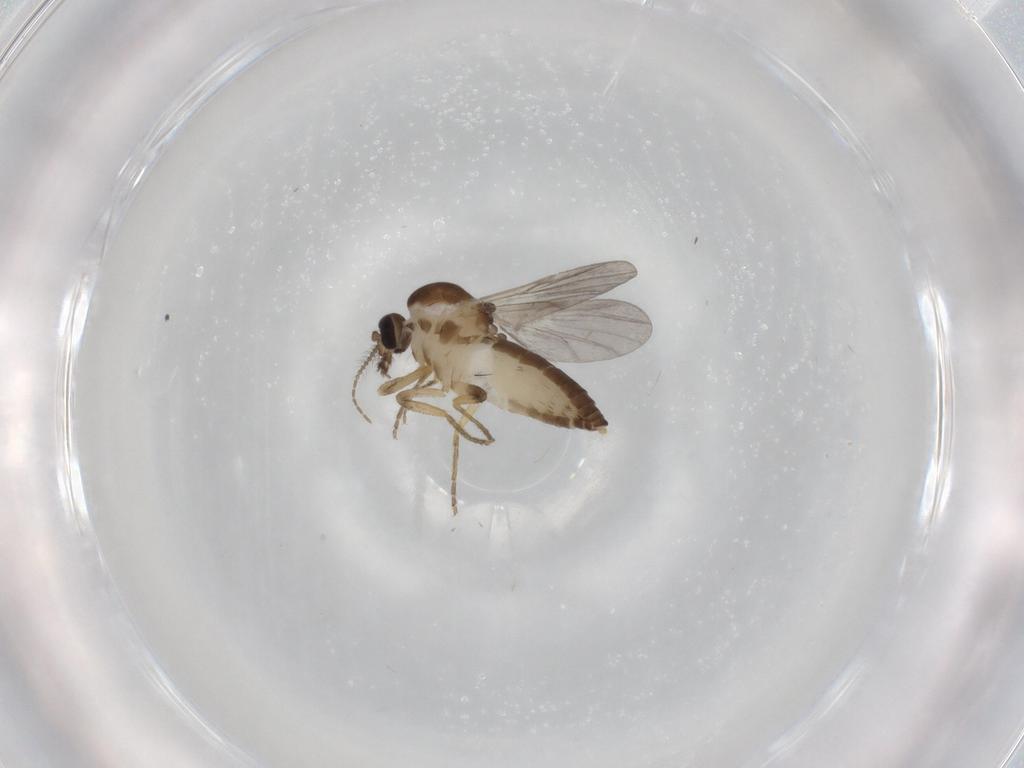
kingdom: Animalia
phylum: Arthropoda
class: Insecta
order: Diptera
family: Ceratopogonidae
